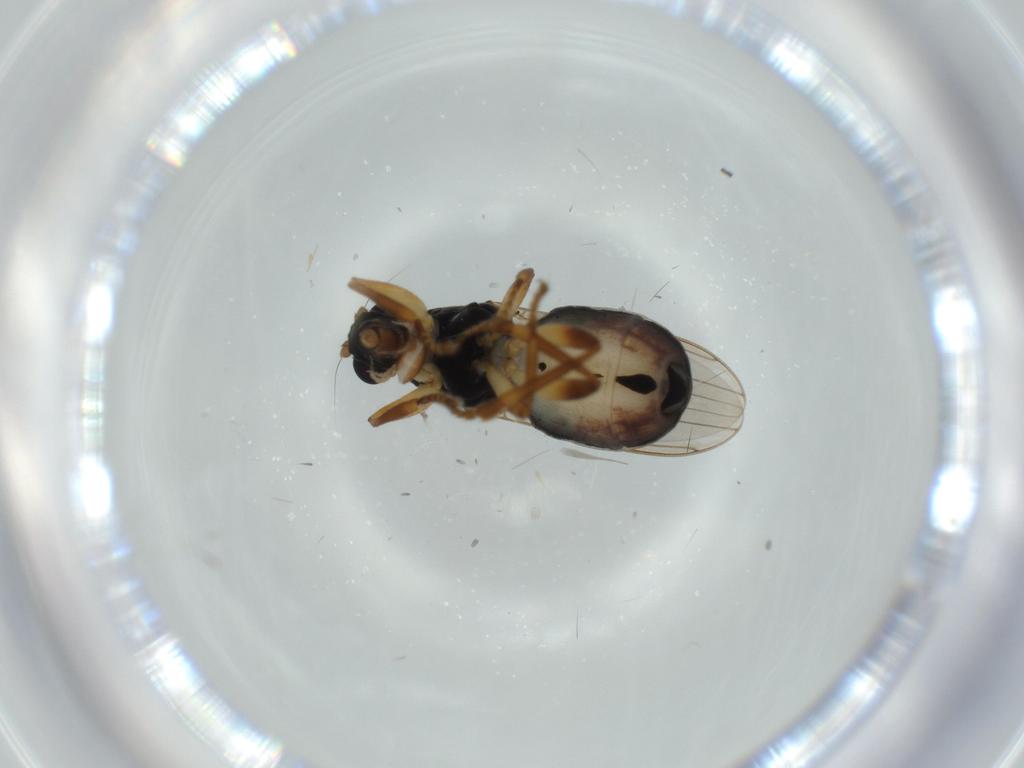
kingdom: Animalia
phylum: Arthropoda
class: Insecta
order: Diptera
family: Sphaeroceridae
